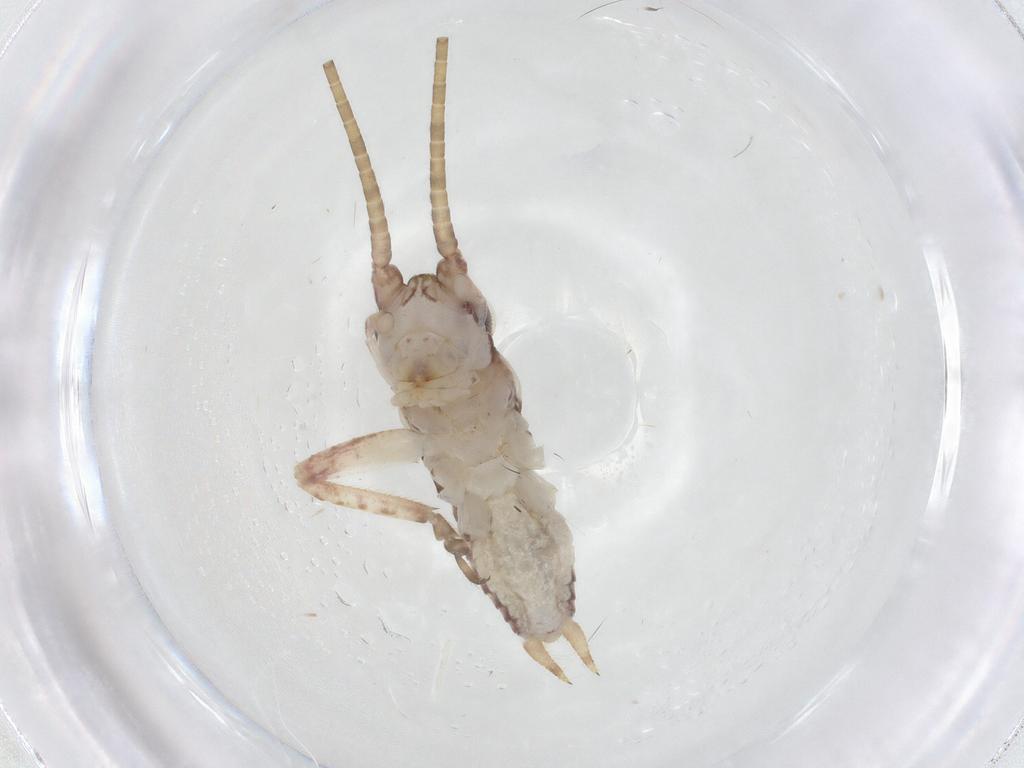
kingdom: Animalia
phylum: Arthropoda
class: Insecta
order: Orthoptera
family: Gryllidae
